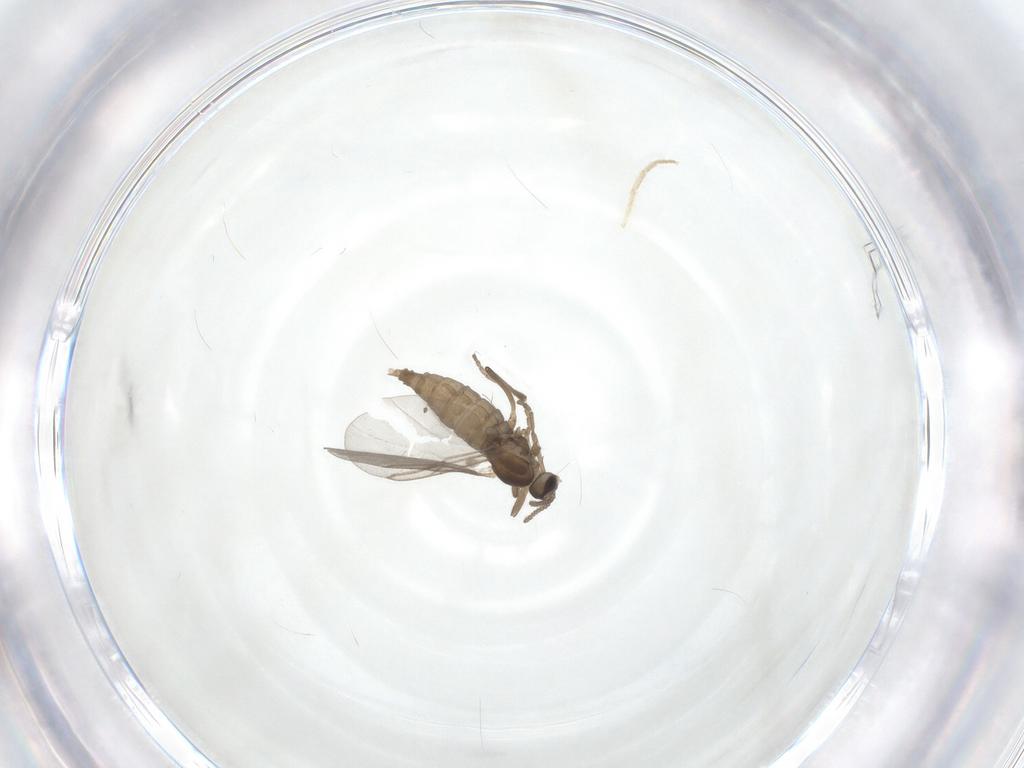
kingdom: Animalia
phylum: Arthropoda
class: Insecta
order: Diptera
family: Cecidomyiidae
